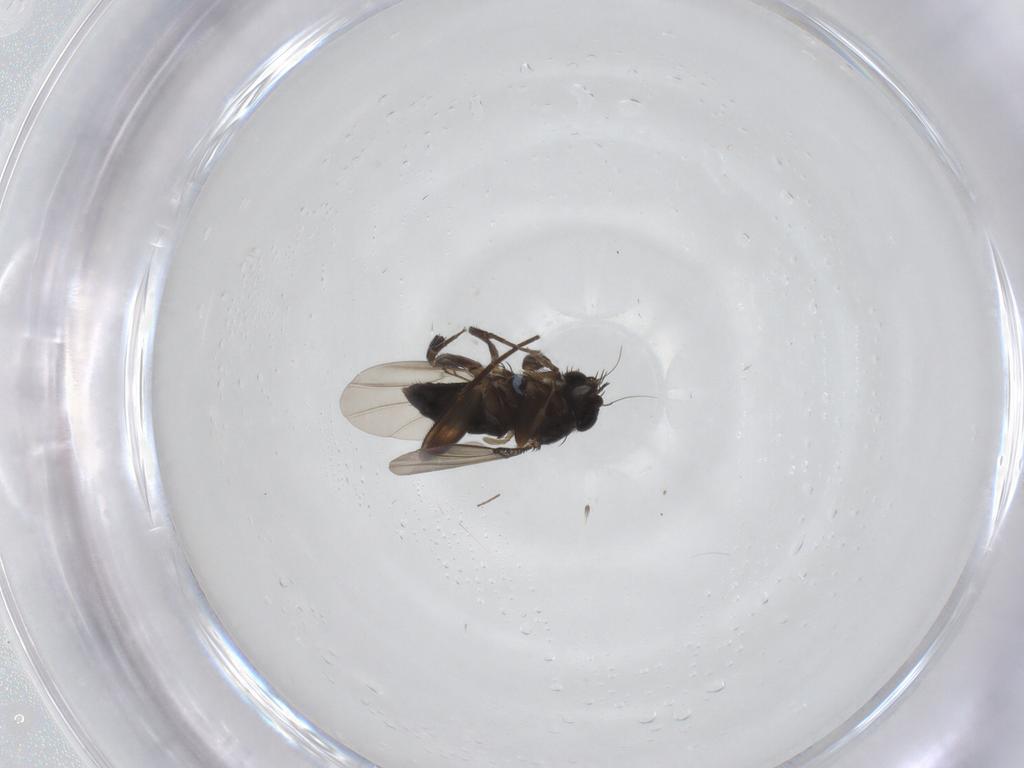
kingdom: Animalia
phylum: Arthropoda
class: Insecta
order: Diptera
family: Phoridae
